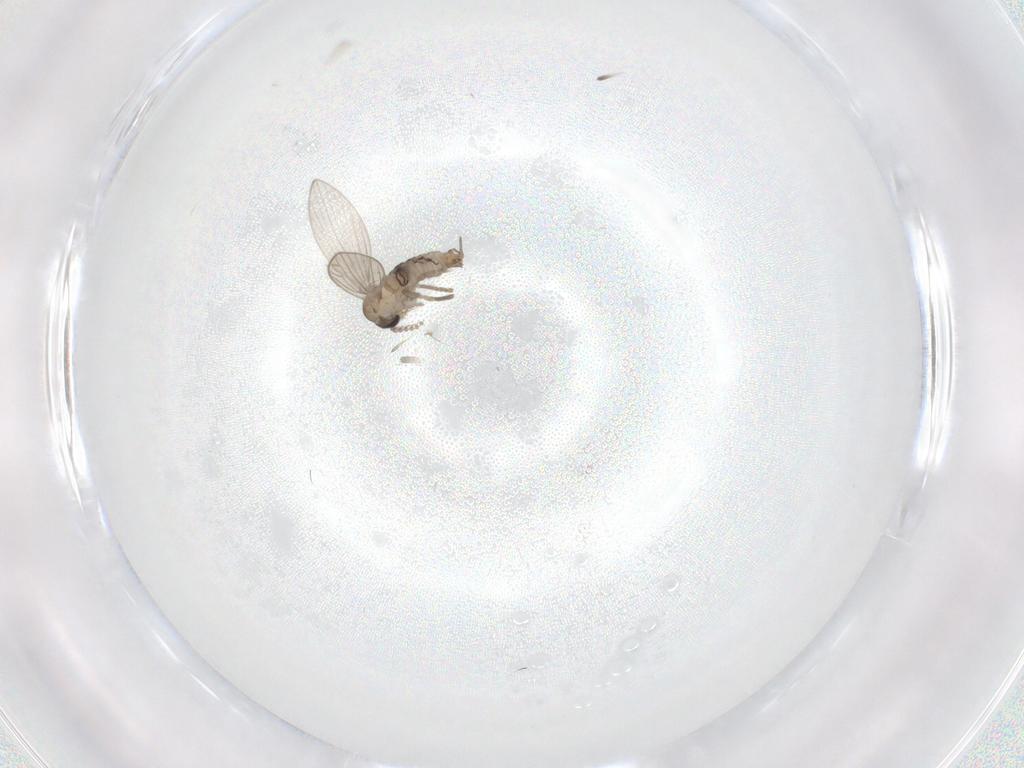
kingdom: Animalia
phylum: Arthropoda
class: Insecta
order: Diptera
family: Psychodidae
